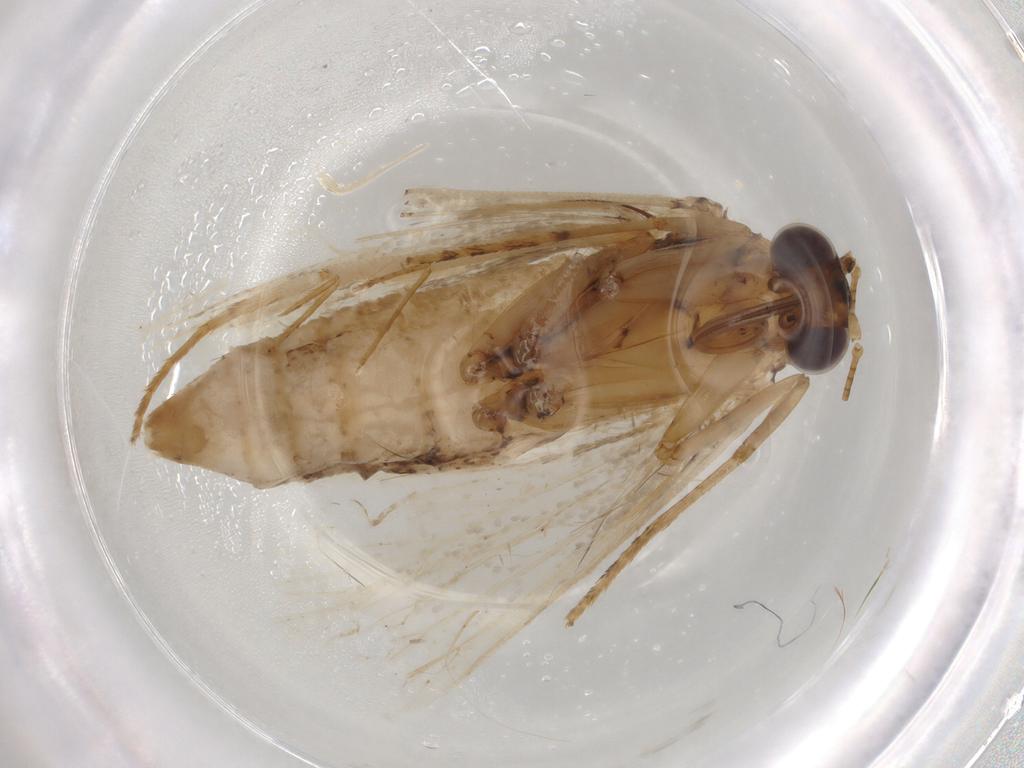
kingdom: Animalia
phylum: Arthropoda
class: Insecta
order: Lepidoptera
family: Erebidae
